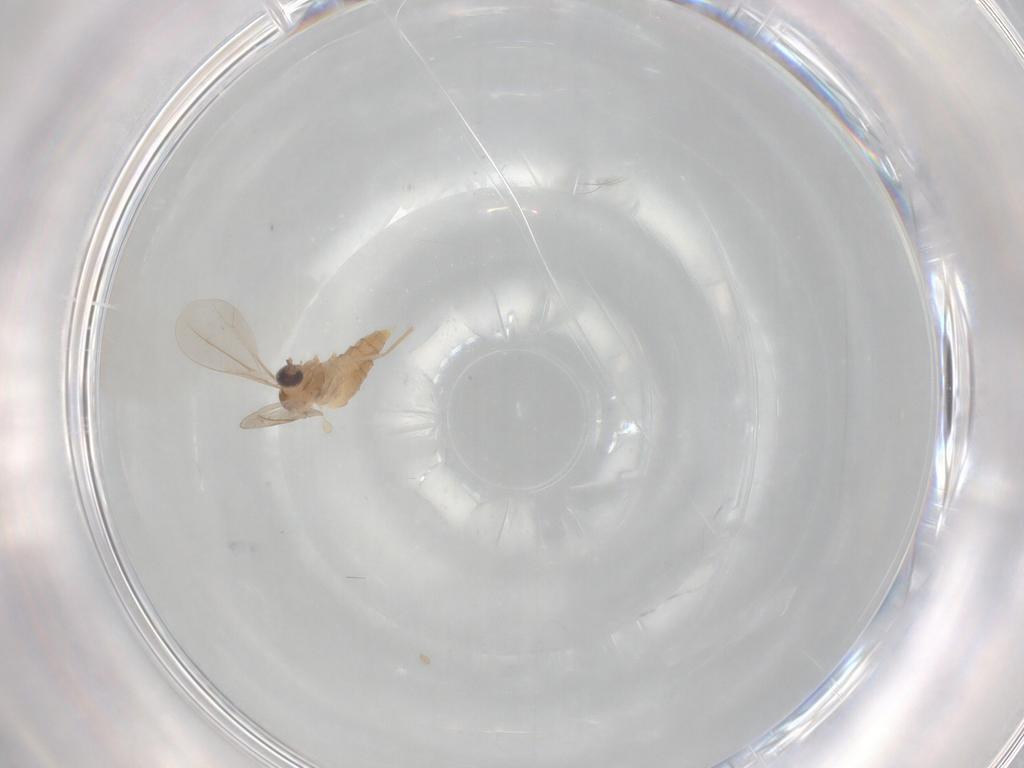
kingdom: Animalia
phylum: Arthropoda
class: Insecta
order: Diptera
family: Cecidomyiidae
